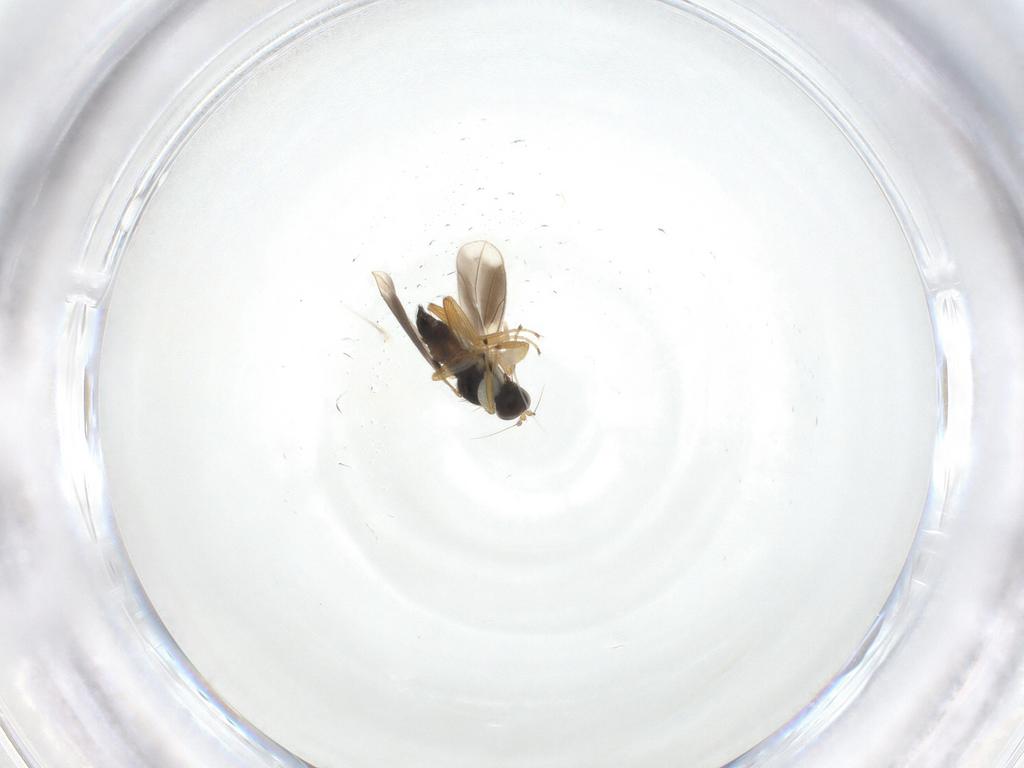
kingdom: Animalia
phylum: Arthropoda
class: Insecta
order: Diptera
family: Hybotidae
